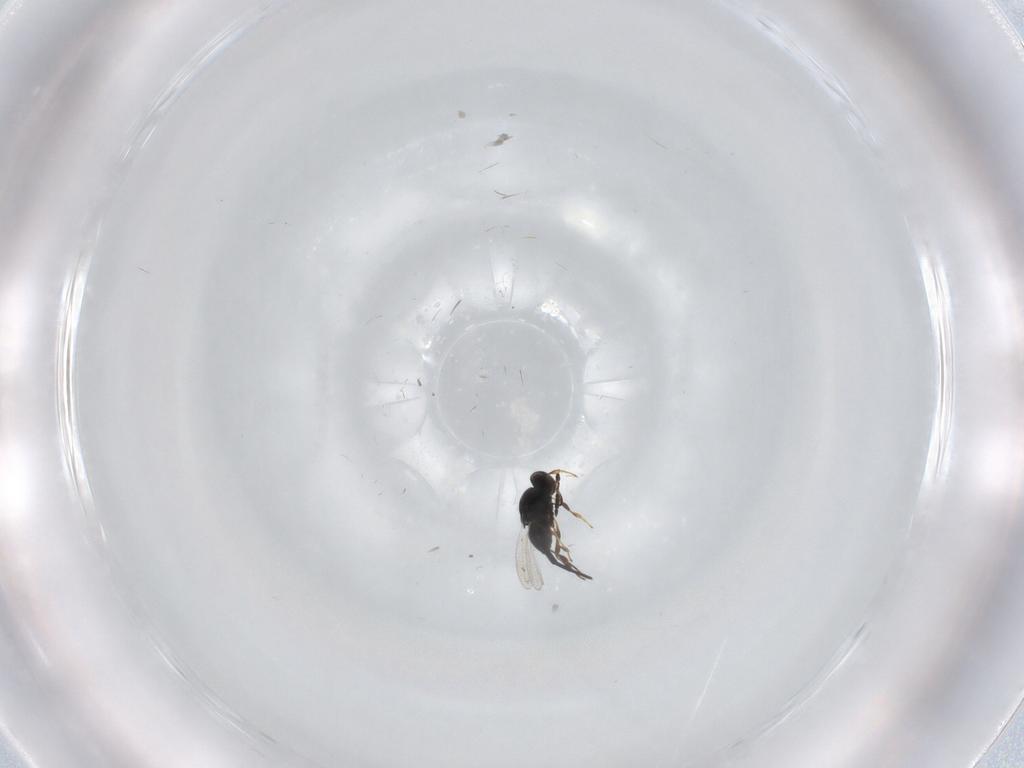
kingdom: Animalia
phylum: Arthropoda
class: Insecta
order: Hymenoptera
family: Platygastridae
